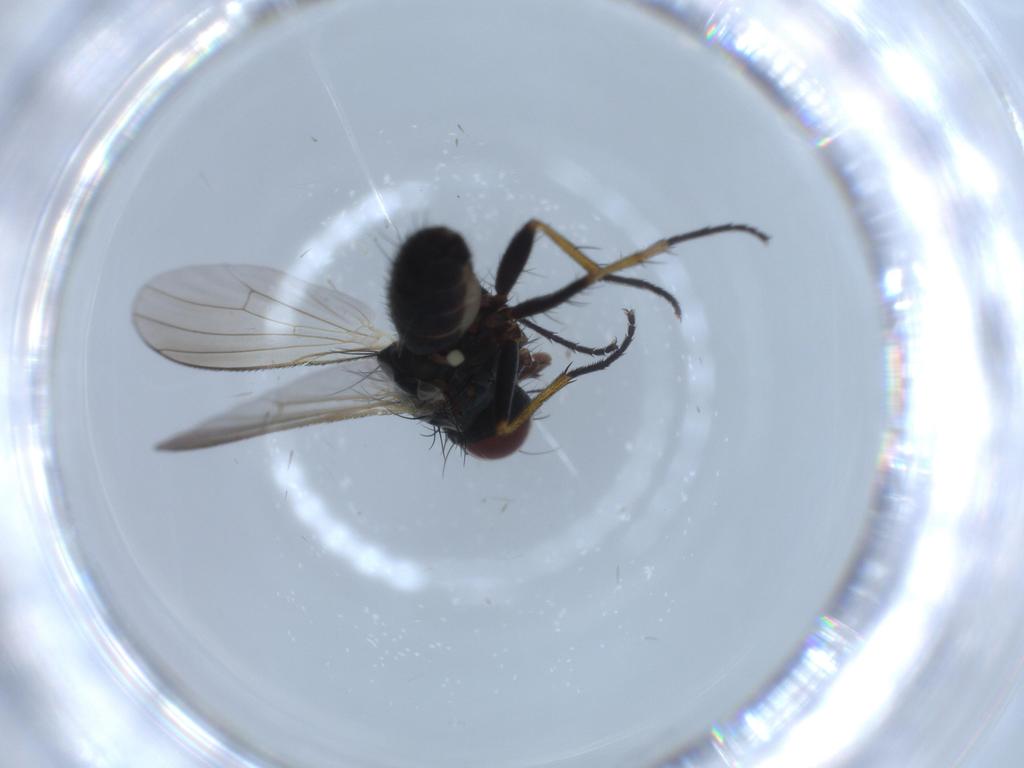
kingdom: Animalia
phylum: Arthropoda
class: Insecta
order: Diptera
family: Muscidae
